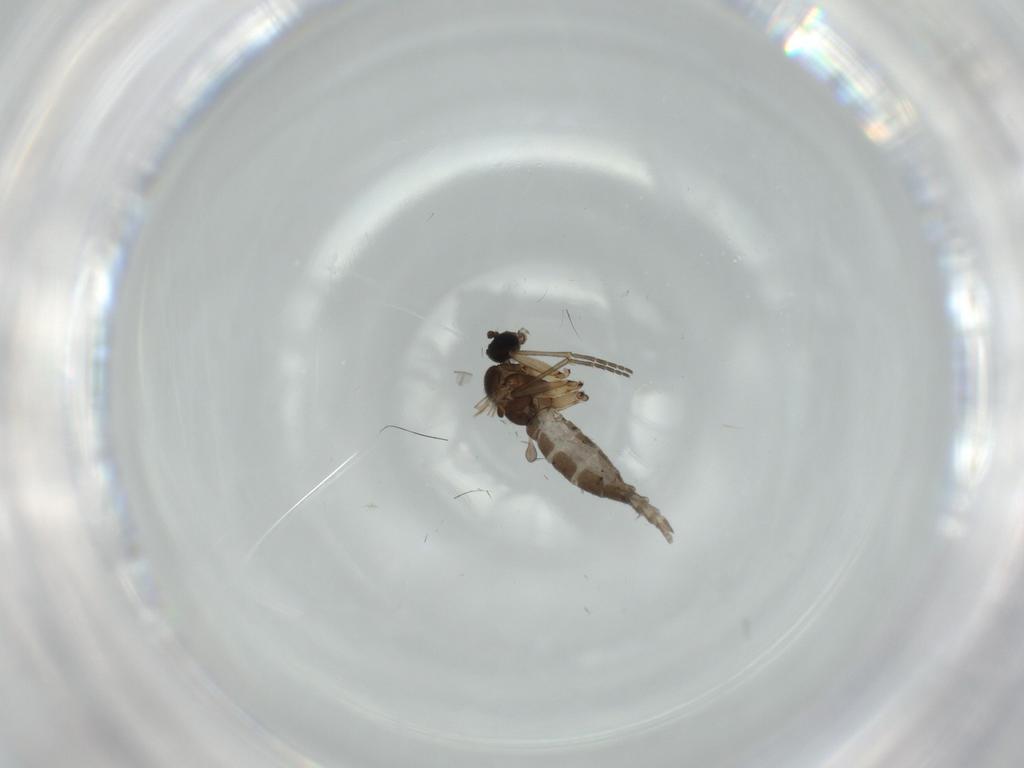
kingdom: Animalia
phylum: Arthropoda
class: Insecta
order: Diptera
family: Sciaridae
